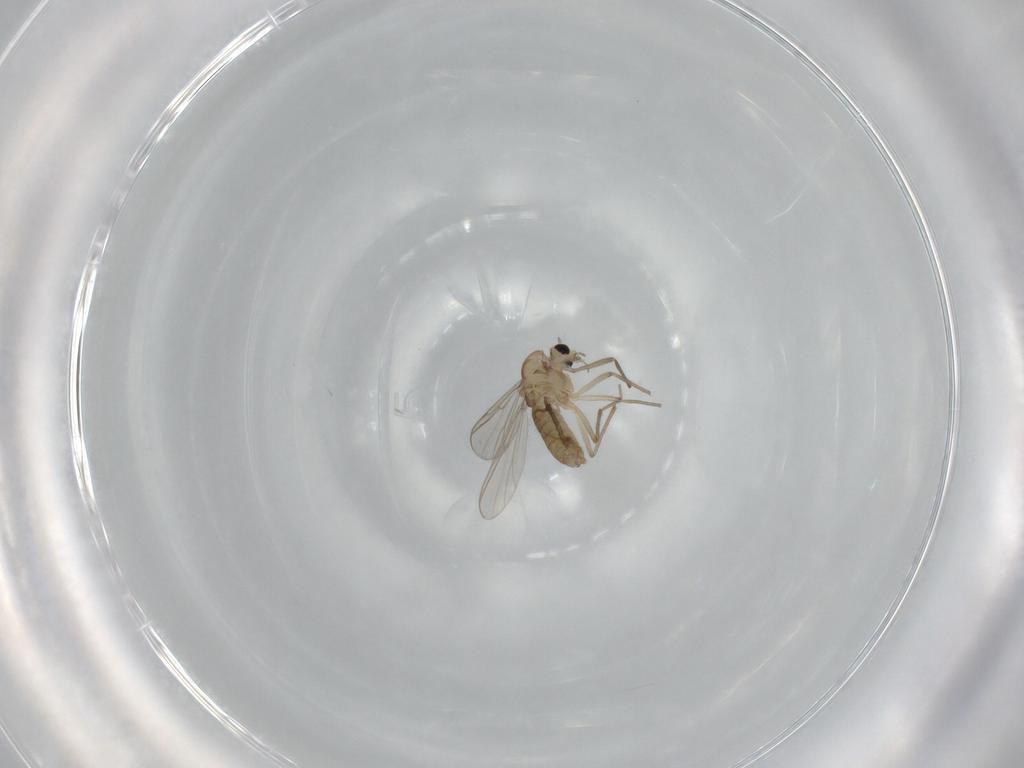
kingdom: Animalia
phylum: Arthropoda
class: Insecta
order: Diptera
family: Chironomidae
